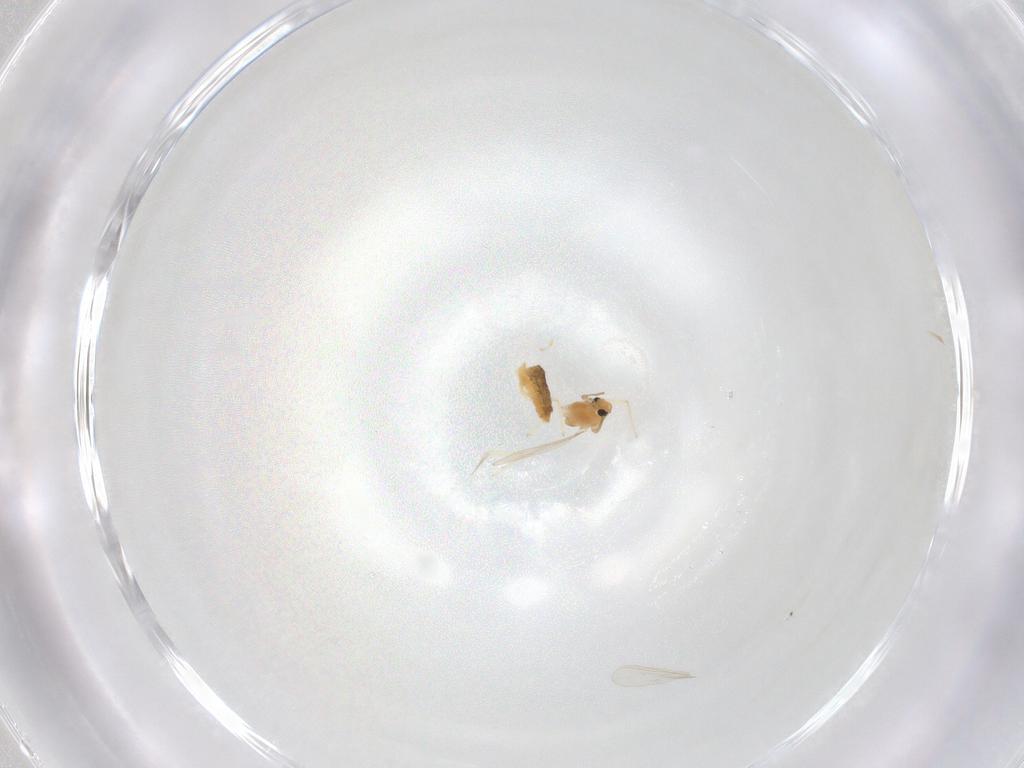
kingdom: Animalia
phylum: Arthropoda
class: Insecta
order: Diptera
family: Chironomidae
